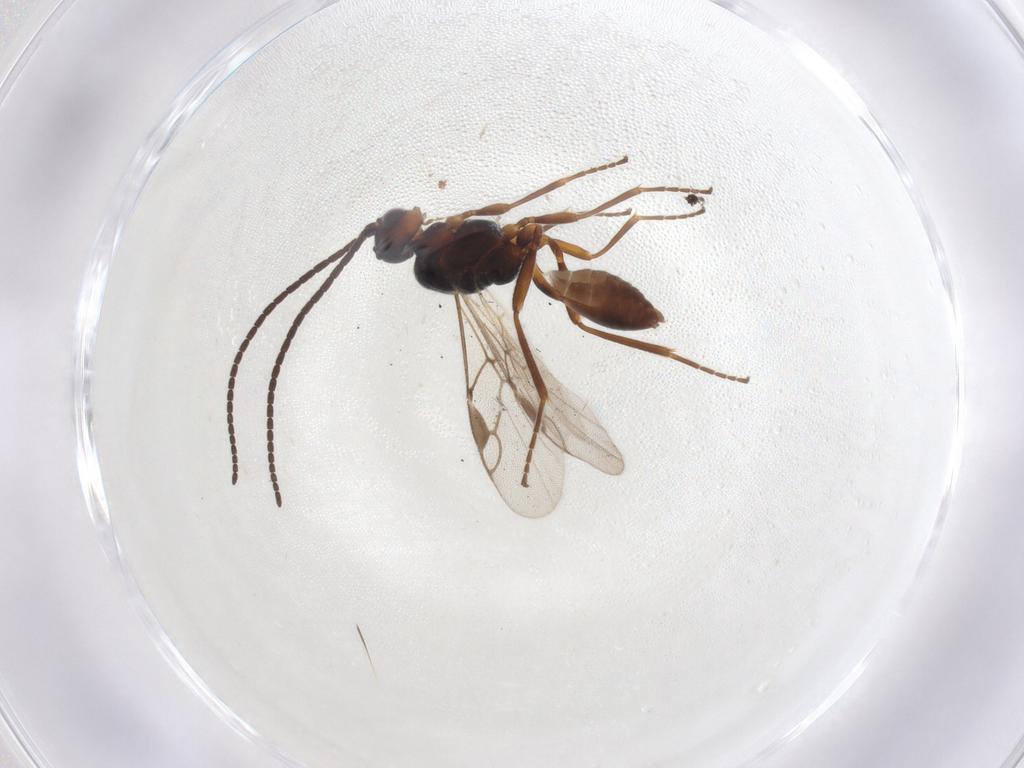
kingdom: Animalia
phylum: Arthropoda
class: Insecta
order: Hymenoptera
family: Braconidae
